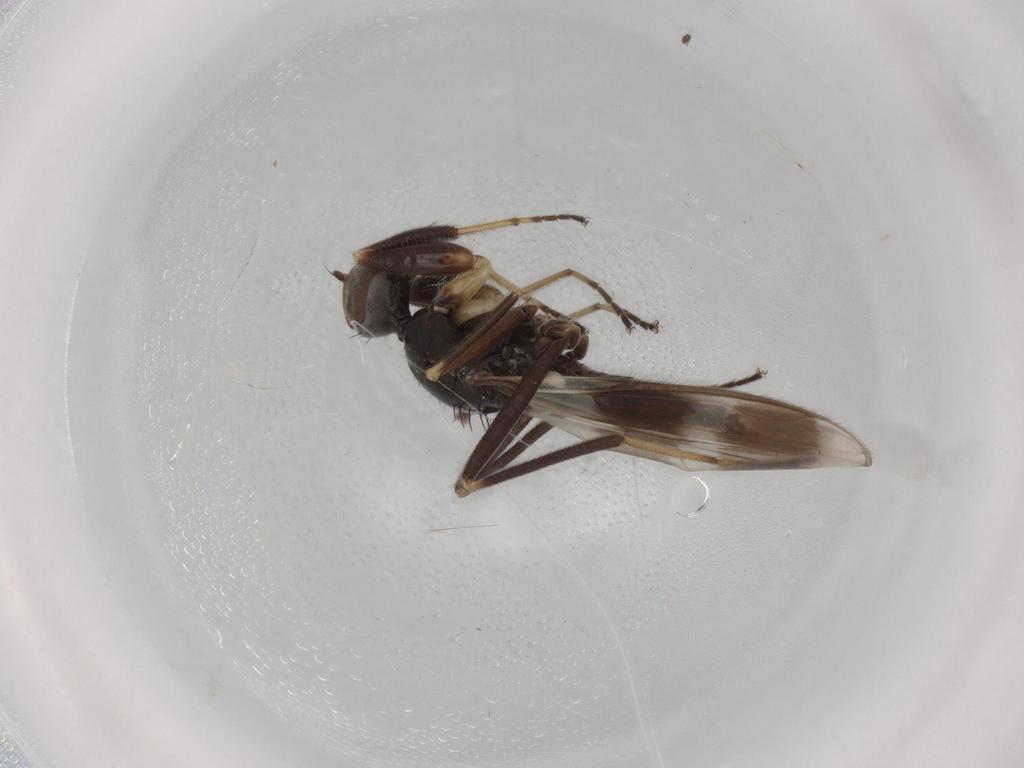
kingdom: Animalia
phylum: Arthropoda
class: Insecta
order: Diptera
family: Hybotidae
